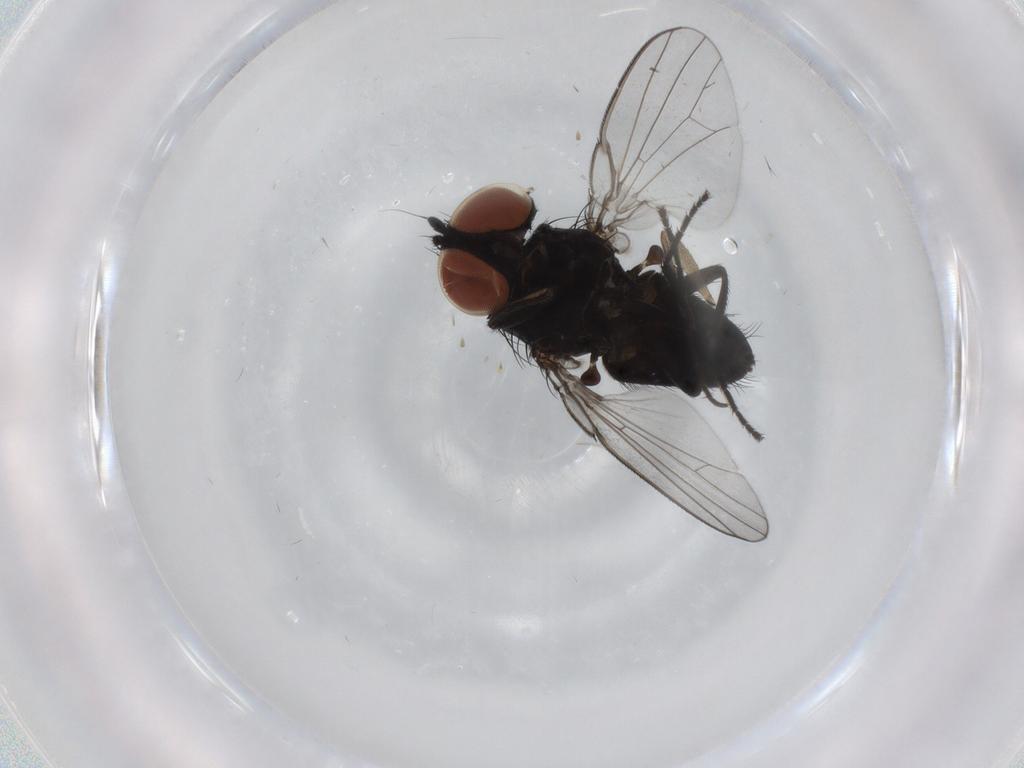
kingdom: Animalia
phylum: Arthropoda
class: Insecta
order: Diptera
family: Milichiidae
